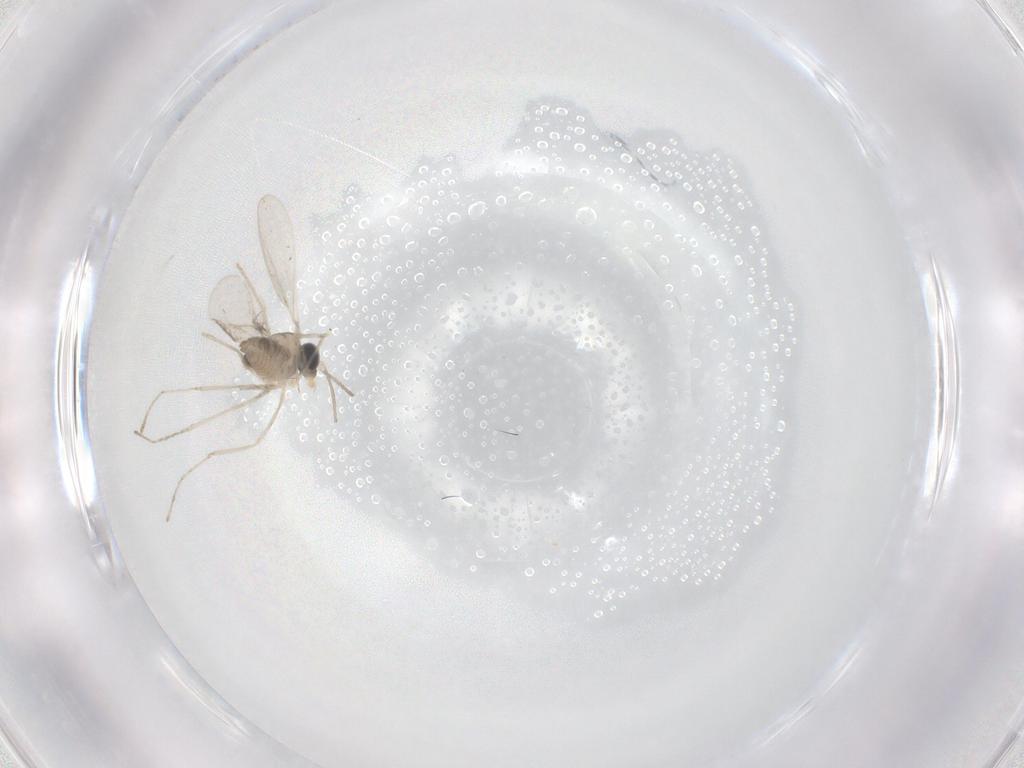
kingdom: Animalia
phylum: Arthropoda
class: Insecta
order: Diptera
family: Cecidomyiidae
